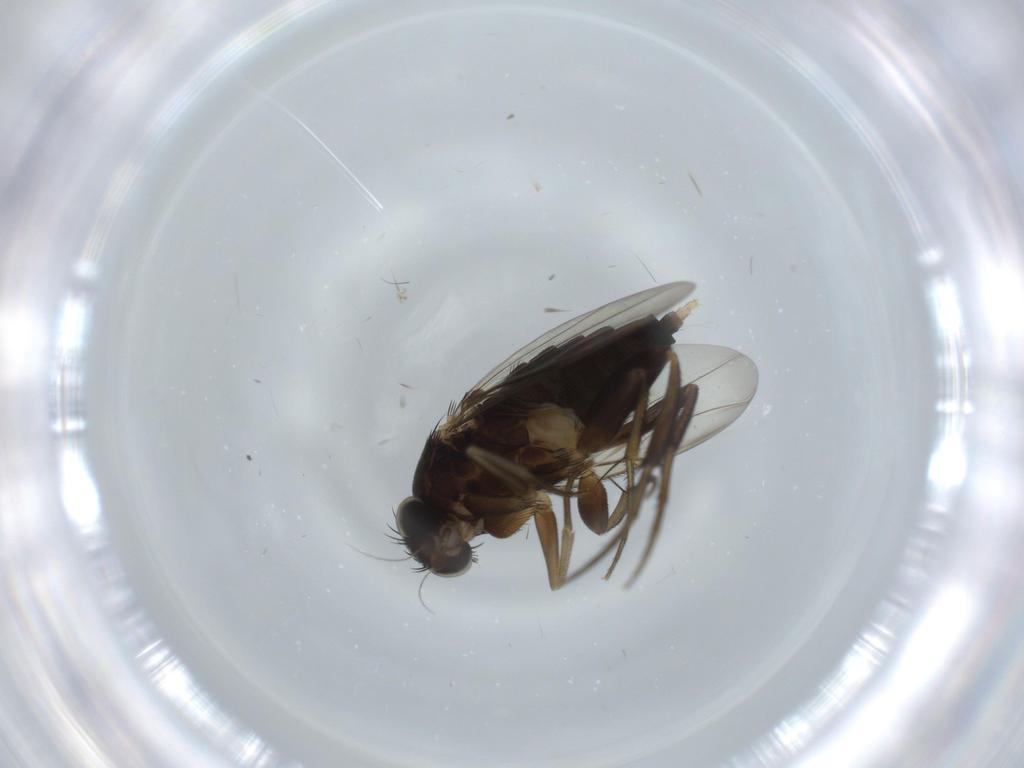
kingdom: Animalia
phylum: Arthropoda
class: Insecta
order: Diptera
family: Phoridae
